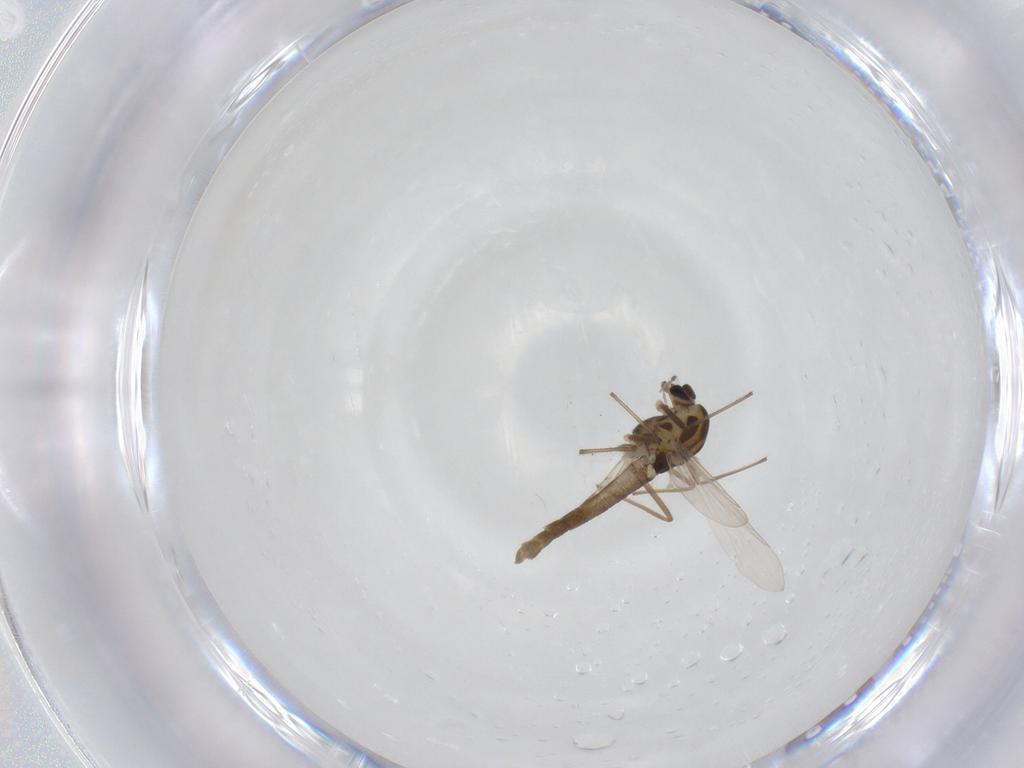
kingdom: Animalia
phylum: Arthropoda
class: Insecta
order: Diptera
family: Chironomidae
